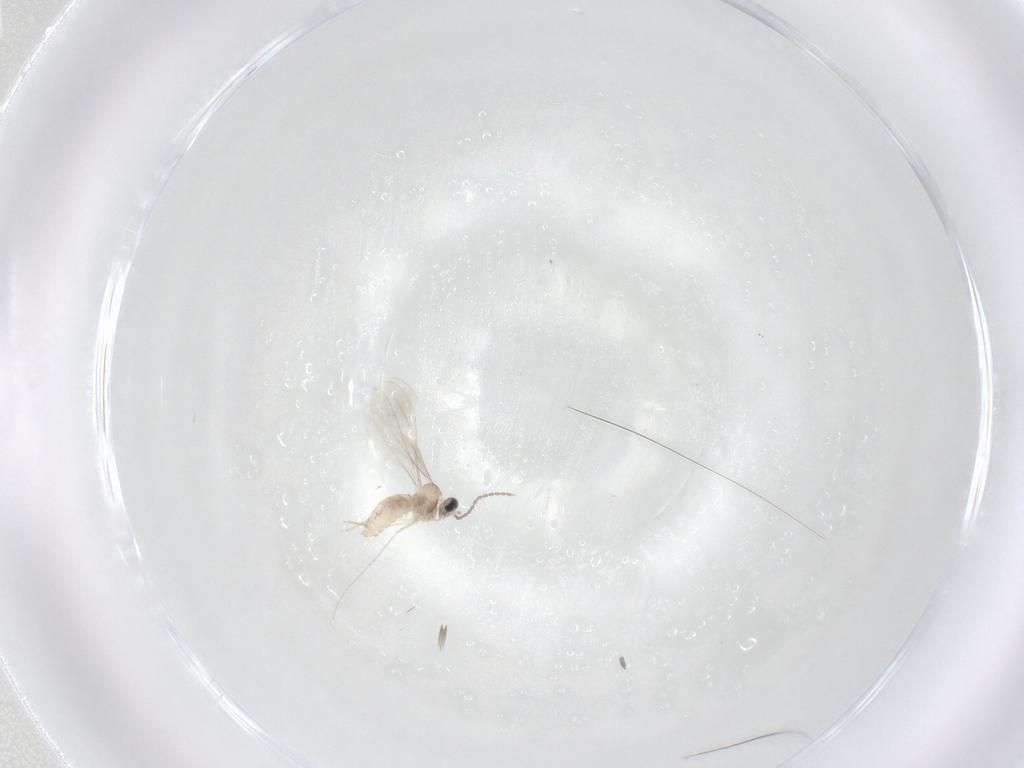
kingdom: Animalia
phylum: Arthropoda
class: Insecta
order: Diptera
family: Cecidomyiidae
